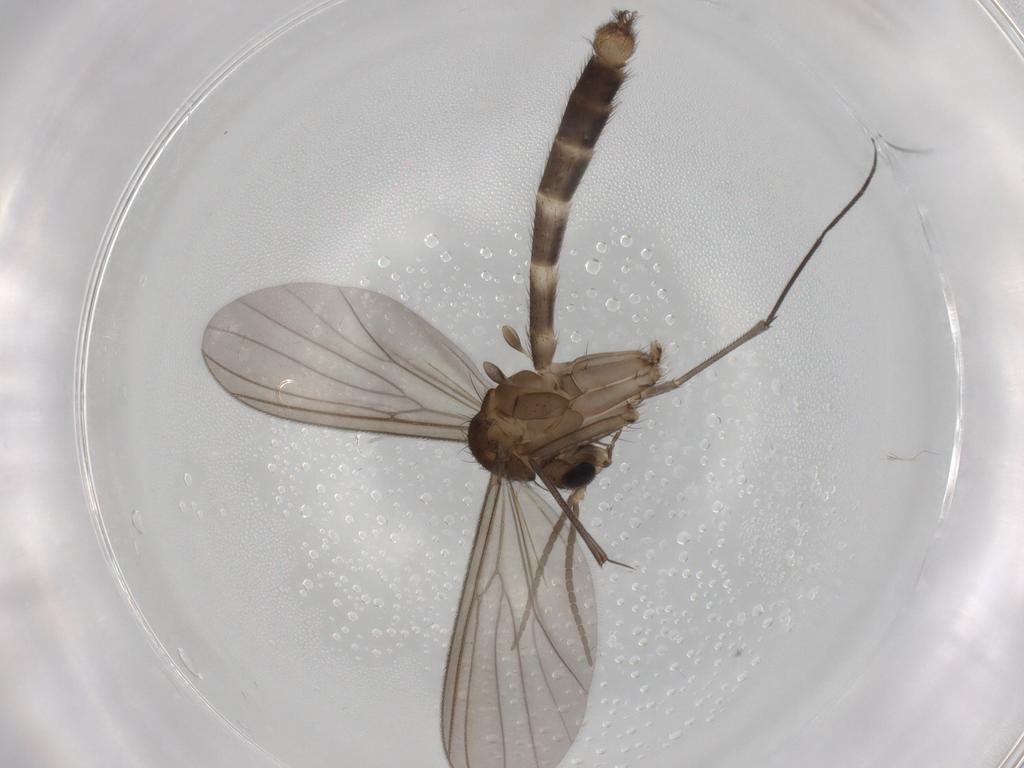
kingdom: Animalia
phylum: Arthropoda
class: Insecta
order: Diptera
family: Mycetophilidae
